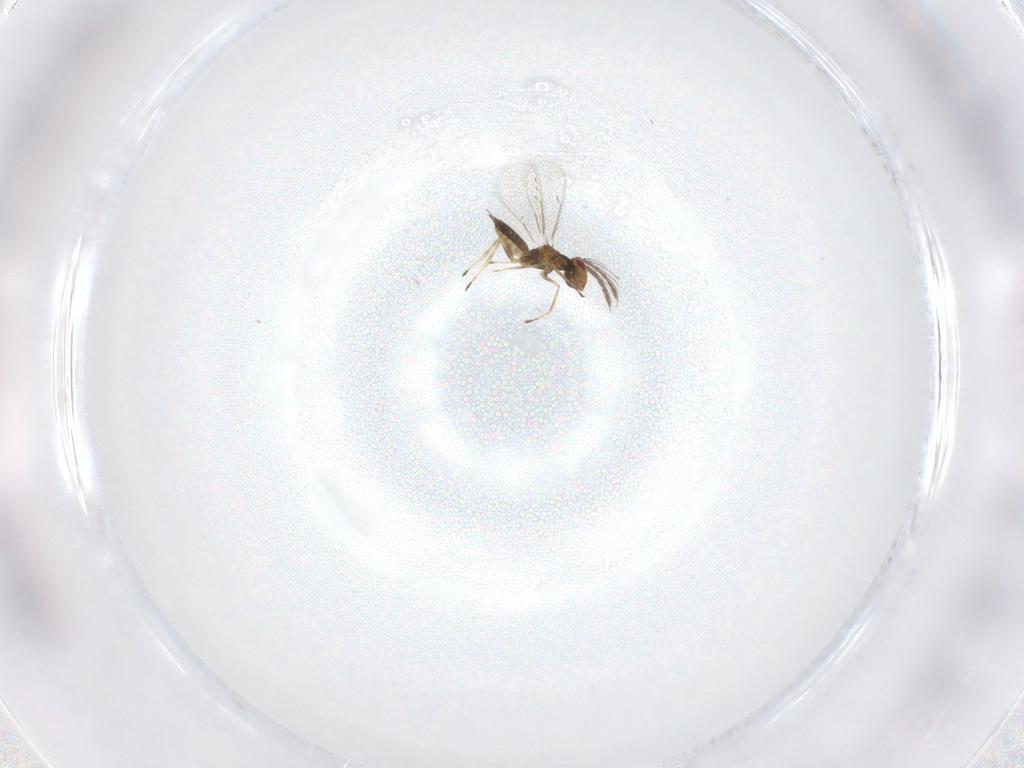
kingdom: Animalia
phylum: Arthropoda
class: Insecta
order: Hymenoptera
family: Eulophidae
